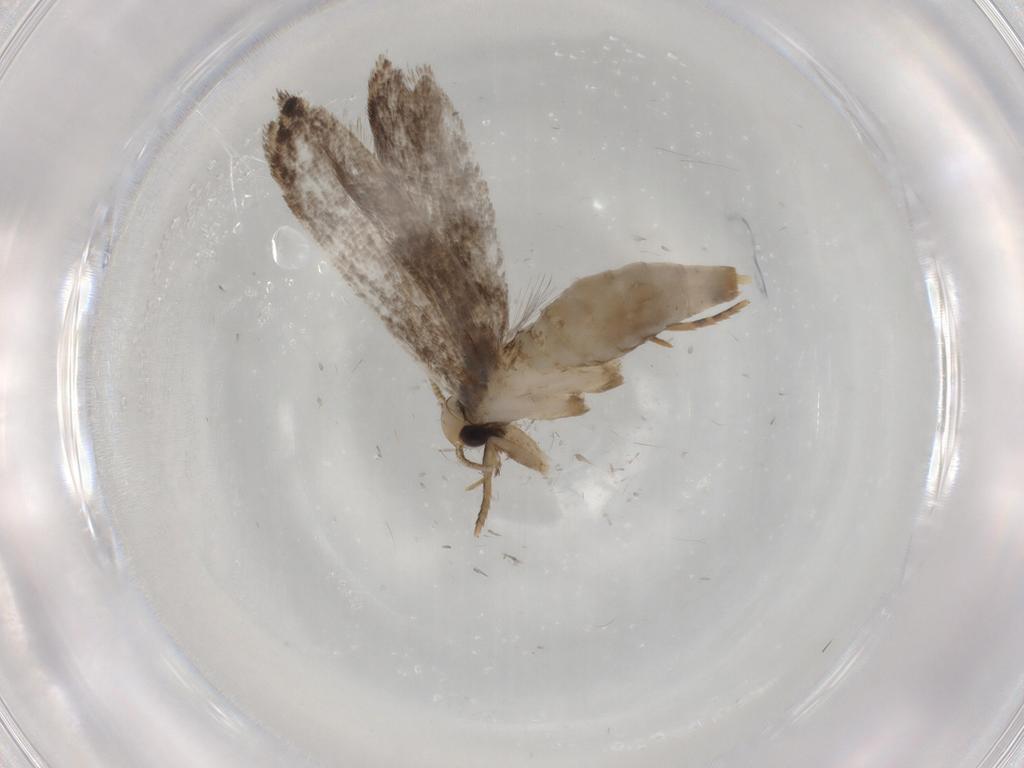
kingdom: Animalia
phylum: Arthropoda
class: Insecta
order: Lepidoptera
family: Tineidae
